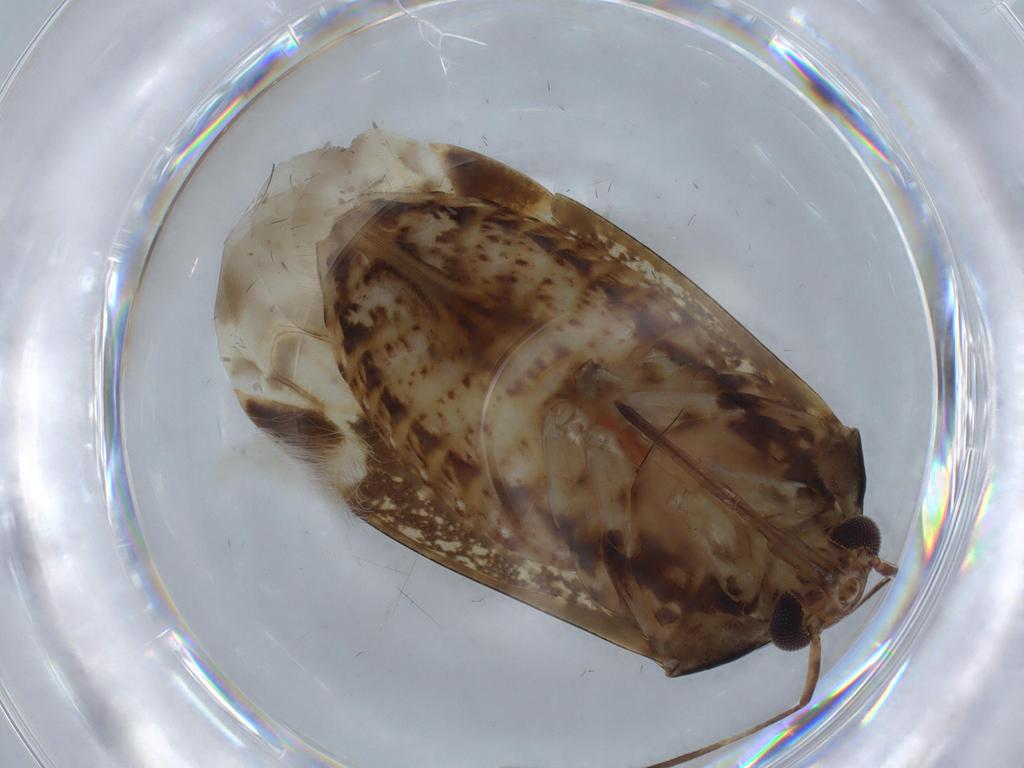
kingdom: Animalia
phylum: Arthropoda
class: Insecta
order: Hemiptera
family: Miridae
